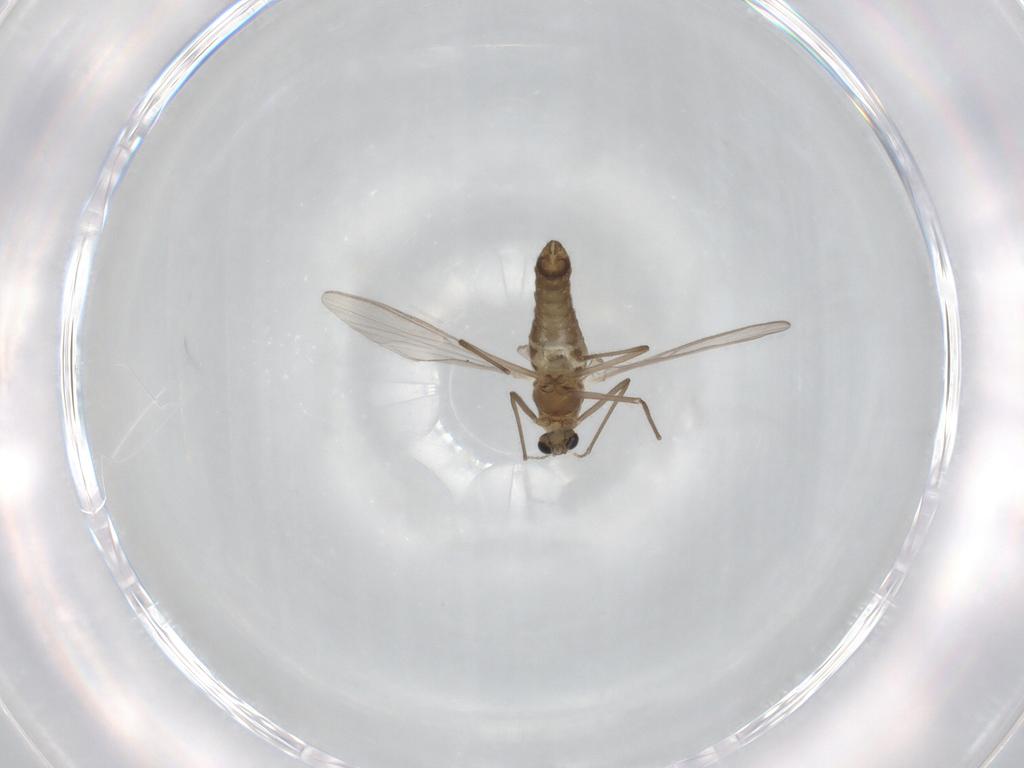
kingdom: Animalia
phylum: Arthropoda
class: Insecta
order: Diptera
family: Chironomidae
